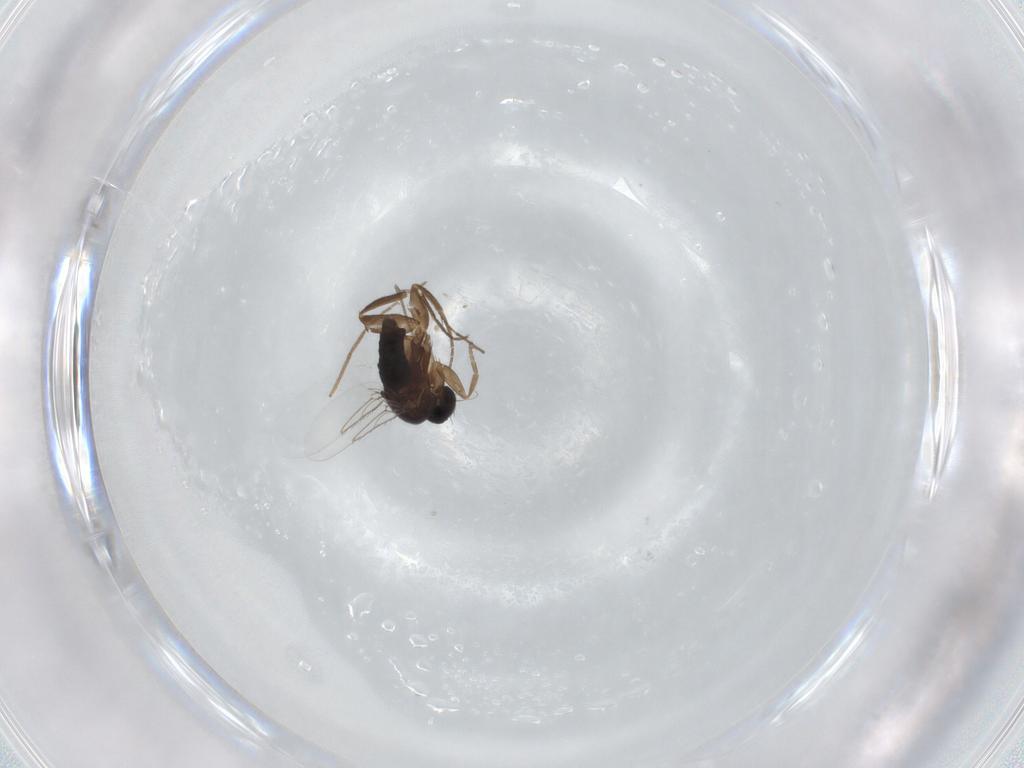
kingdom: Animalia
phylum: Arthropoda
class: Insecta
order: Diptera
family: Phoridae
